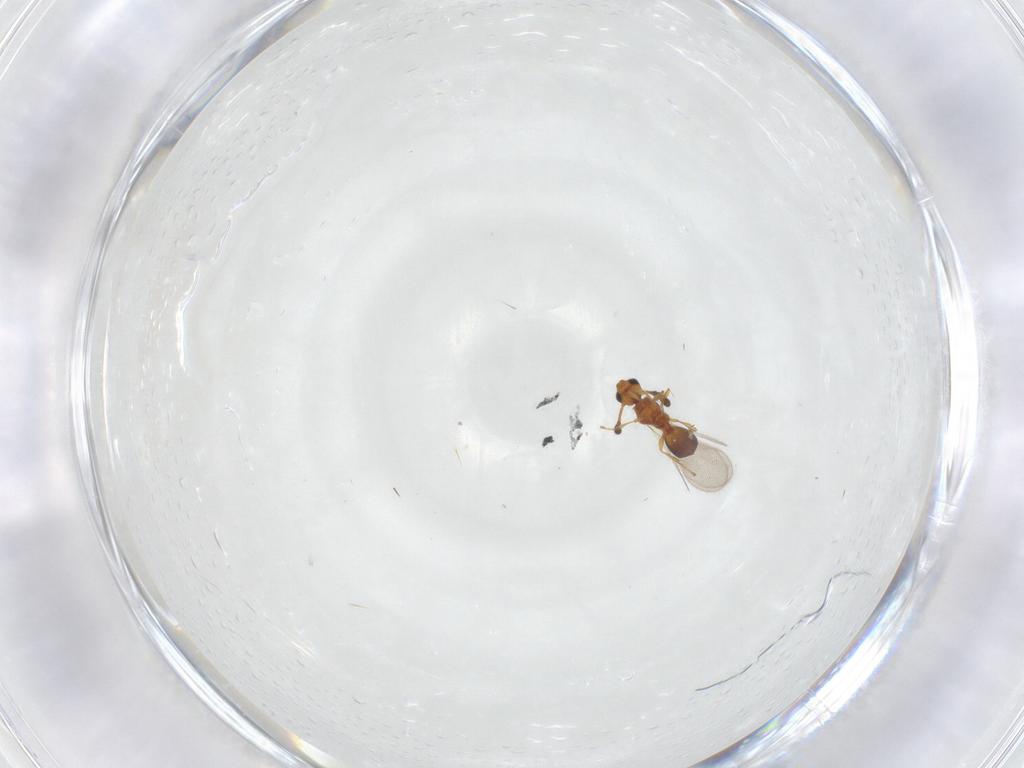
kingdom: Animalia
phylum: Arthropoda
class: Insecta
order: Hymenoptera
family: Diapriidae
